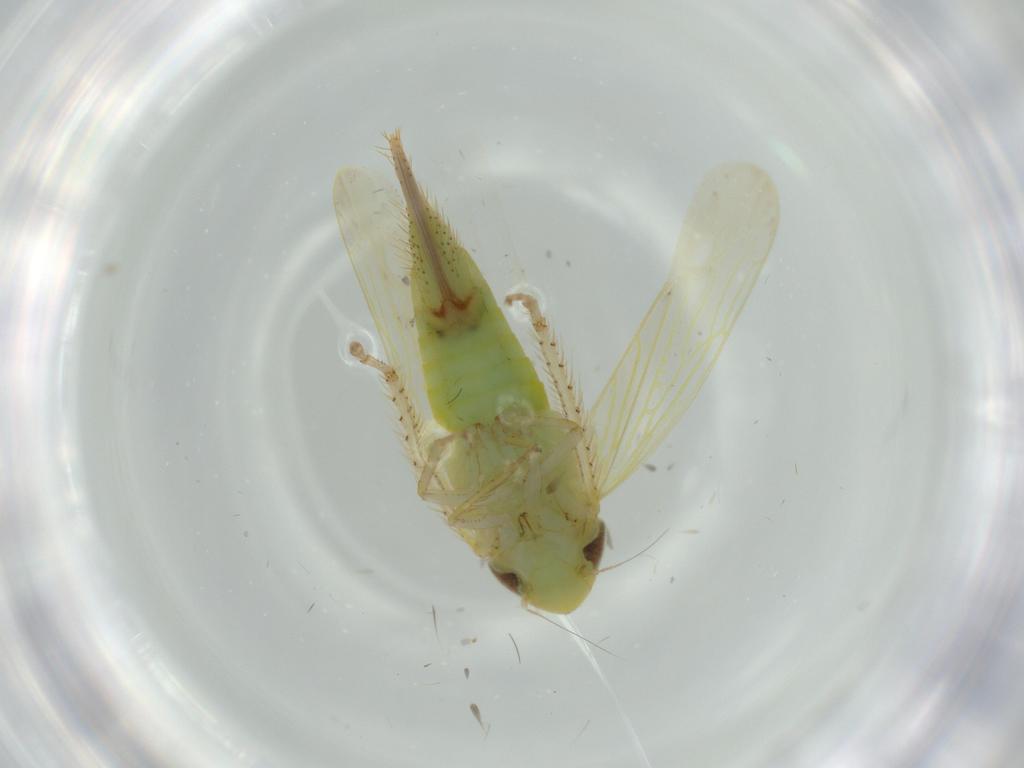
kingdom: Animalia
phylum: Arthropoda
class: Insecta
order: Hemiptera
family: Cicadellidae
